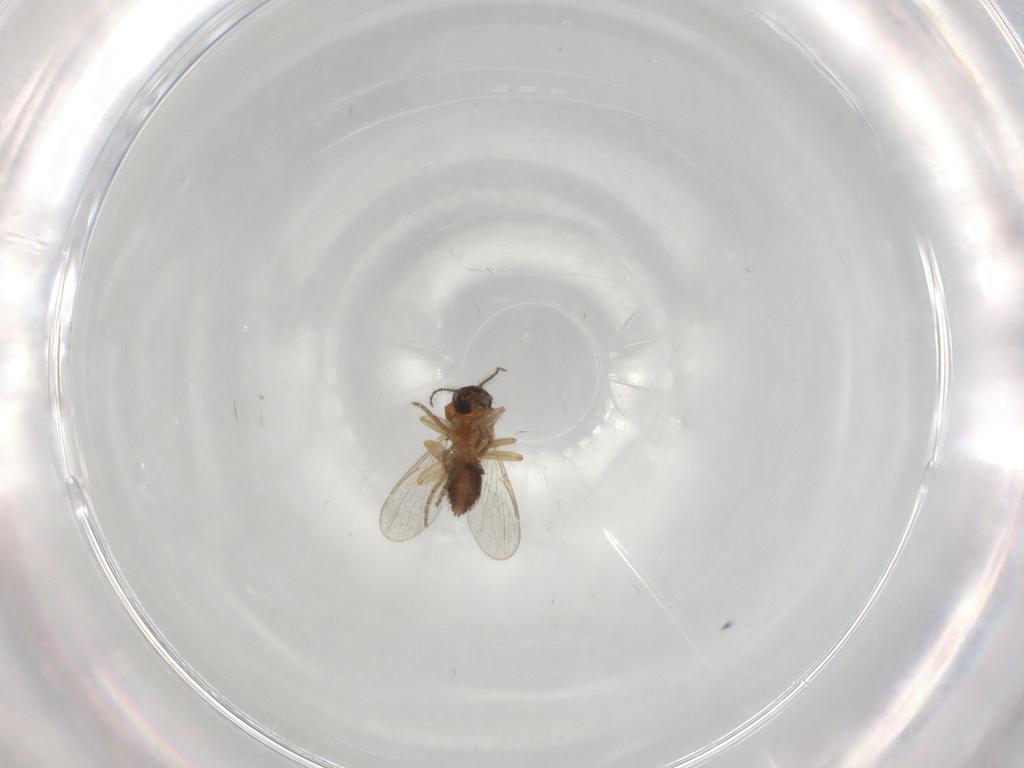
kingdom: Animalia
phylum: Arthropoda
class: Insecta
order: Diptera
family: Ceratopogonidae
